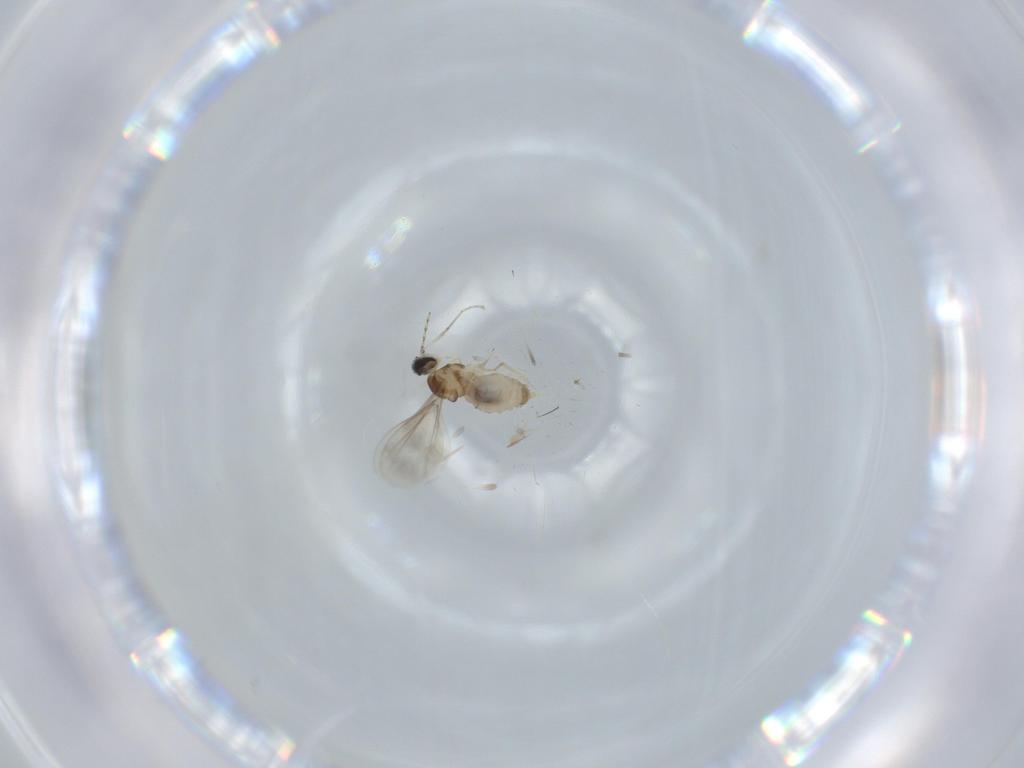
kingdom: Animalia
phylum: Arthropoda
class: Insecta
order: Diptera
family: Cecidomyiidae
